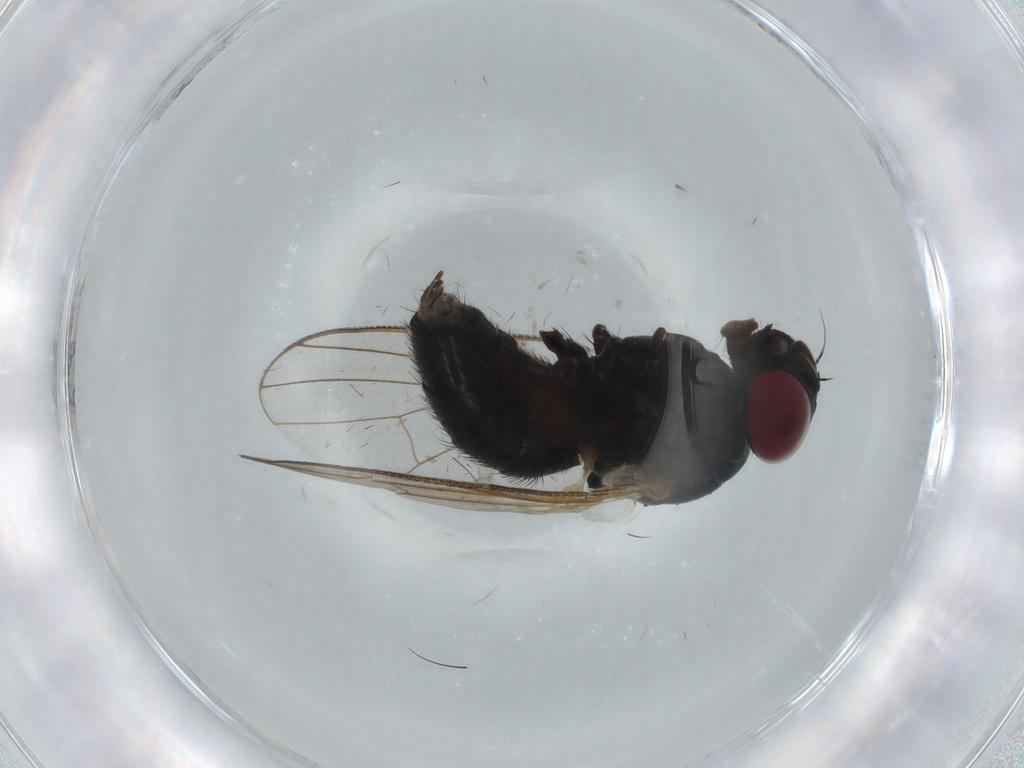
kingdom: Animalia
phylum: Arthropoda
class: Insecta
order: Diptera
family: Fannia
